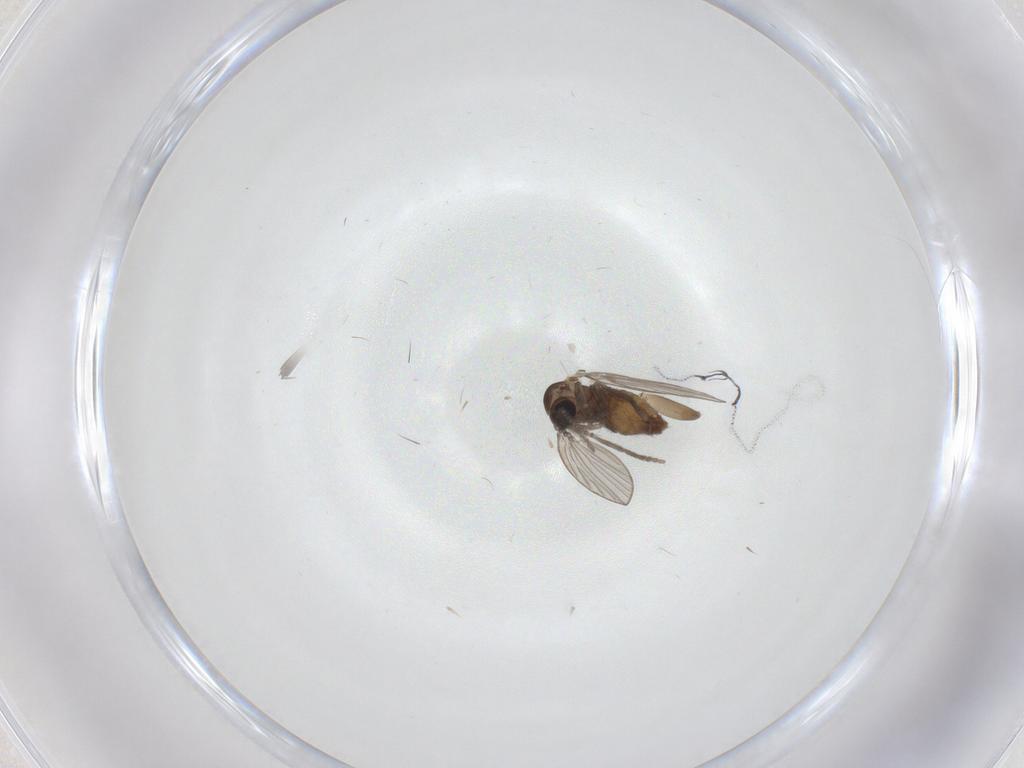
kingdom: Animalia
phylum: Arthropoda
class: Insecta
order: Diptera
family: Psychodidae
